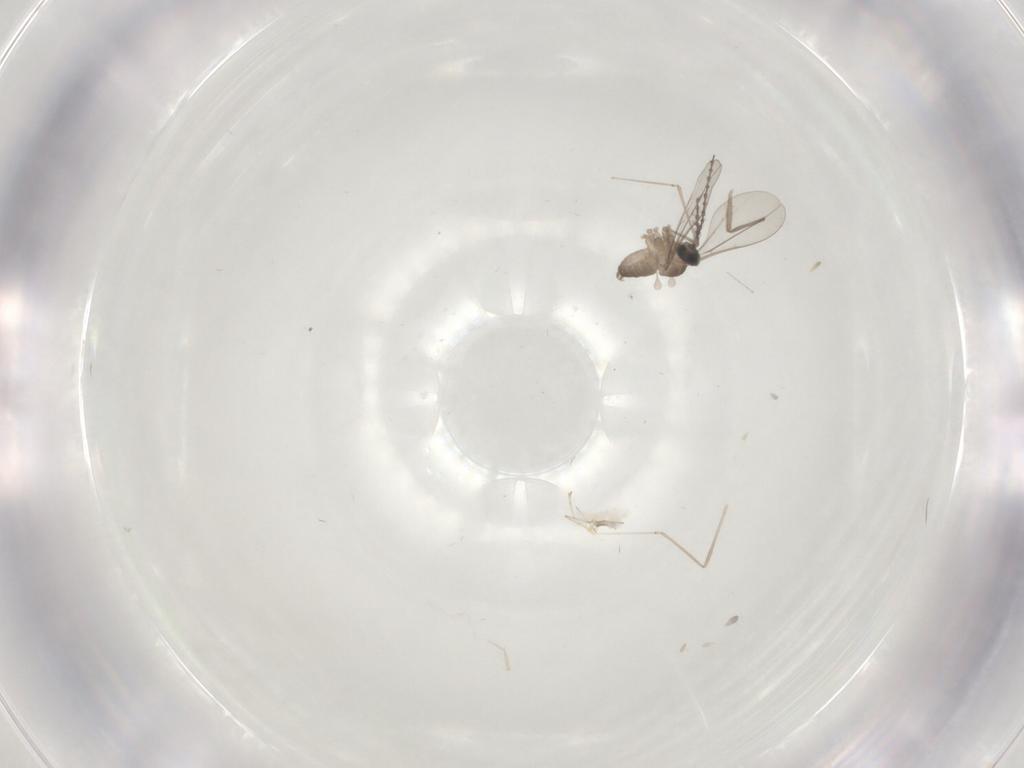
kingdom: Animalia
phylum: Arthropoda
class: Insecta
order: Diptera
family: Cecidomyiidae
